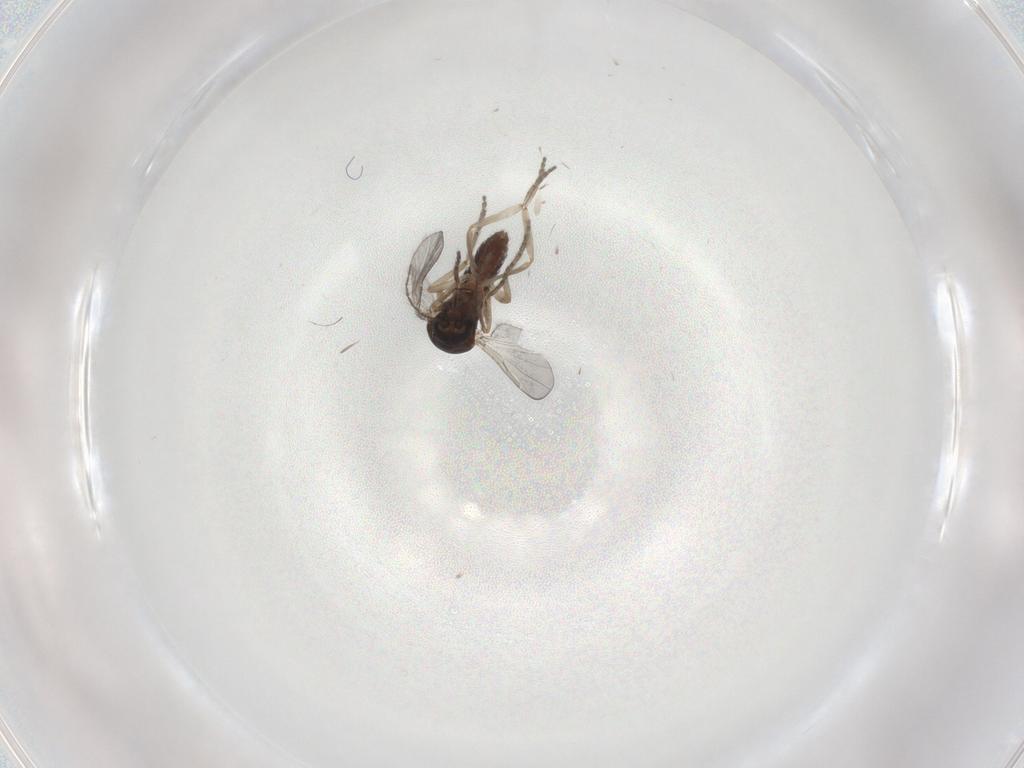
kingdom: Animalia
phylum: Arthropoda
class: Insecta
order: Diptera
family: Ceratopogonidae
